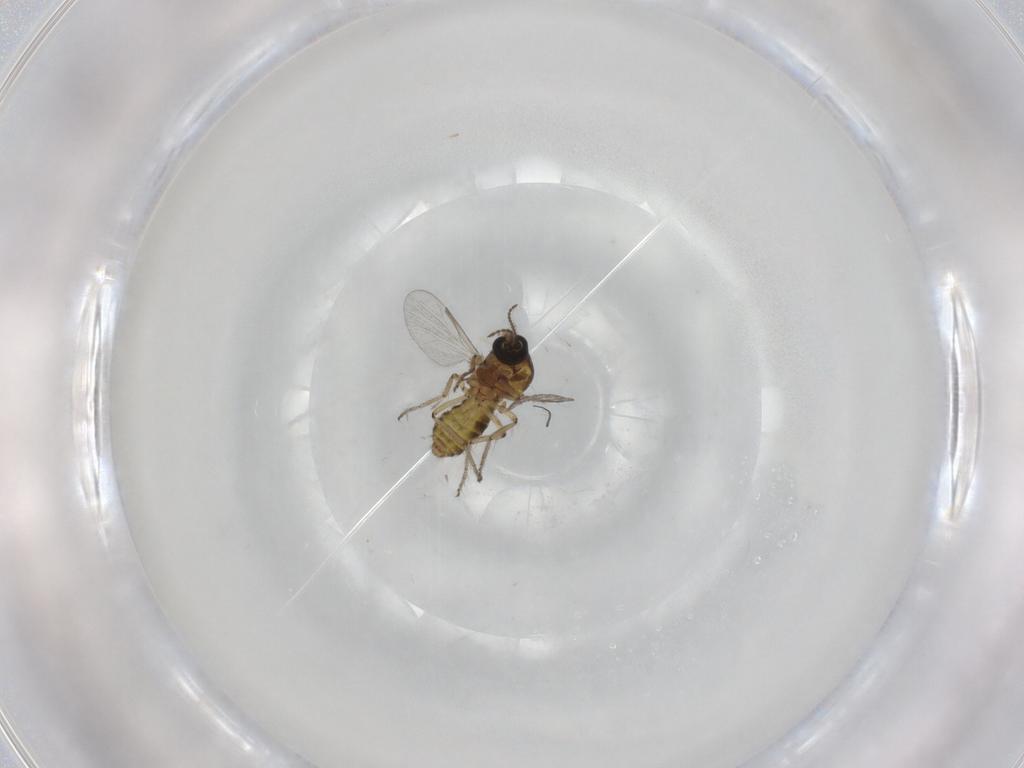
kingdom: Animalia
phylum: Arthropoda
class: Insecta
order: Diptera
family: Ceratopogonidae
